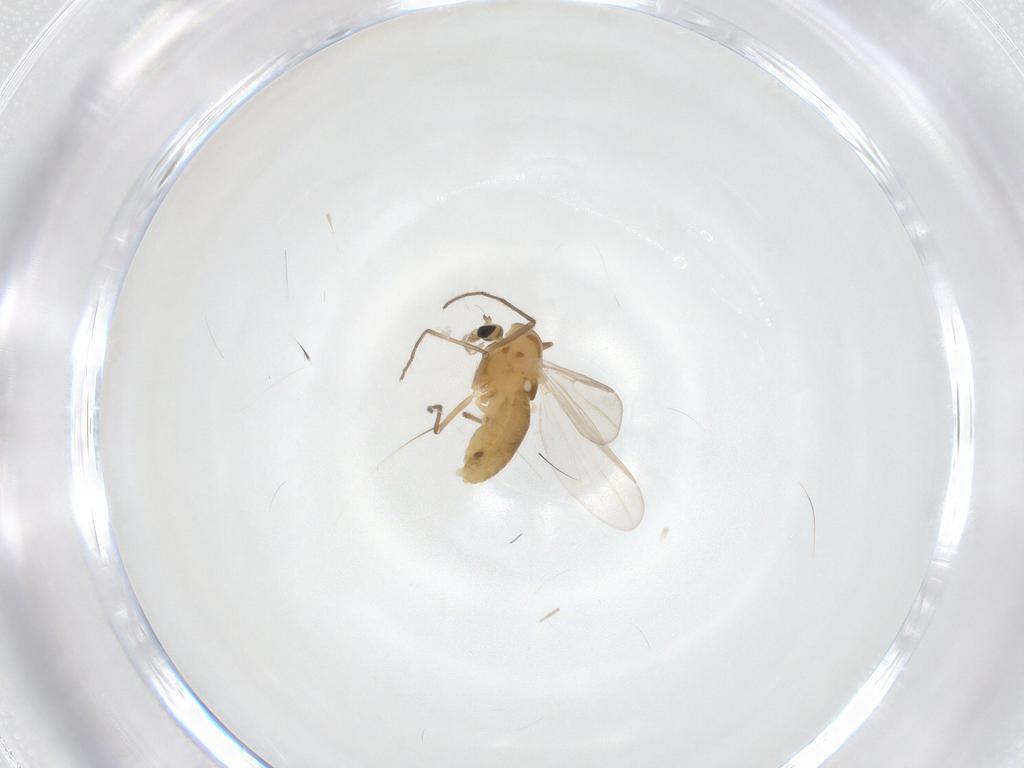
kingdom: Animalia
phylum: Arthropoda
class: Insecta
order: Diptera
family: Chironomidae
